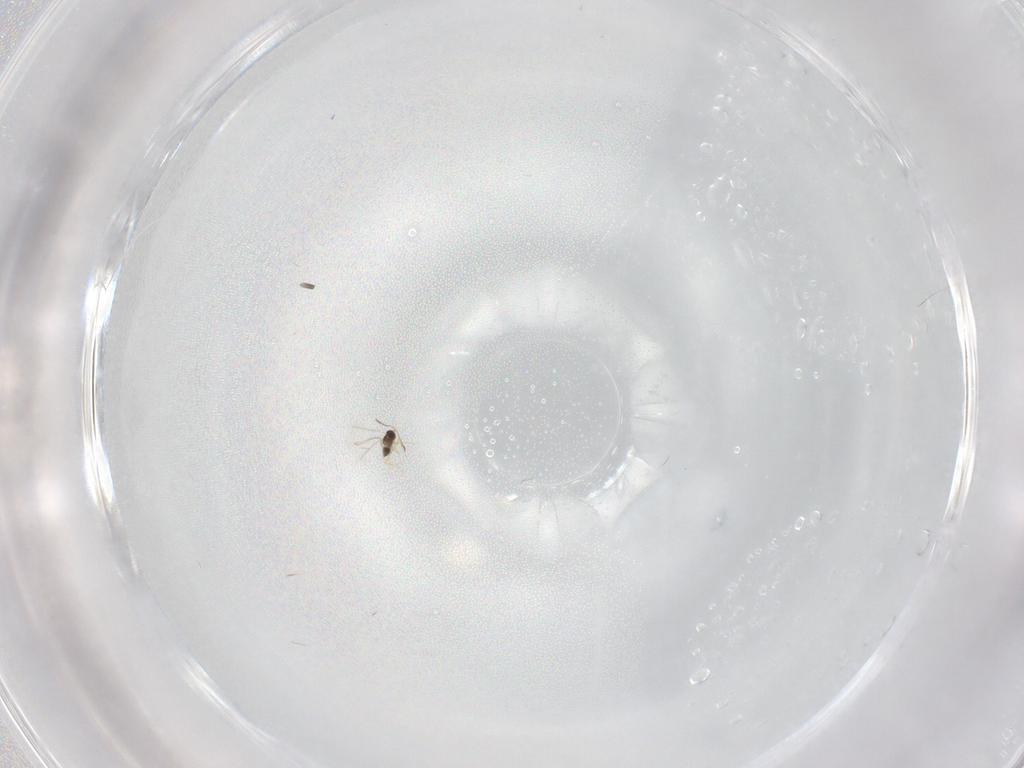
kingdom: Animalia
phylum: Arthropoda
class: Insecta
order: Hymenoptera
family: Mymaridae
